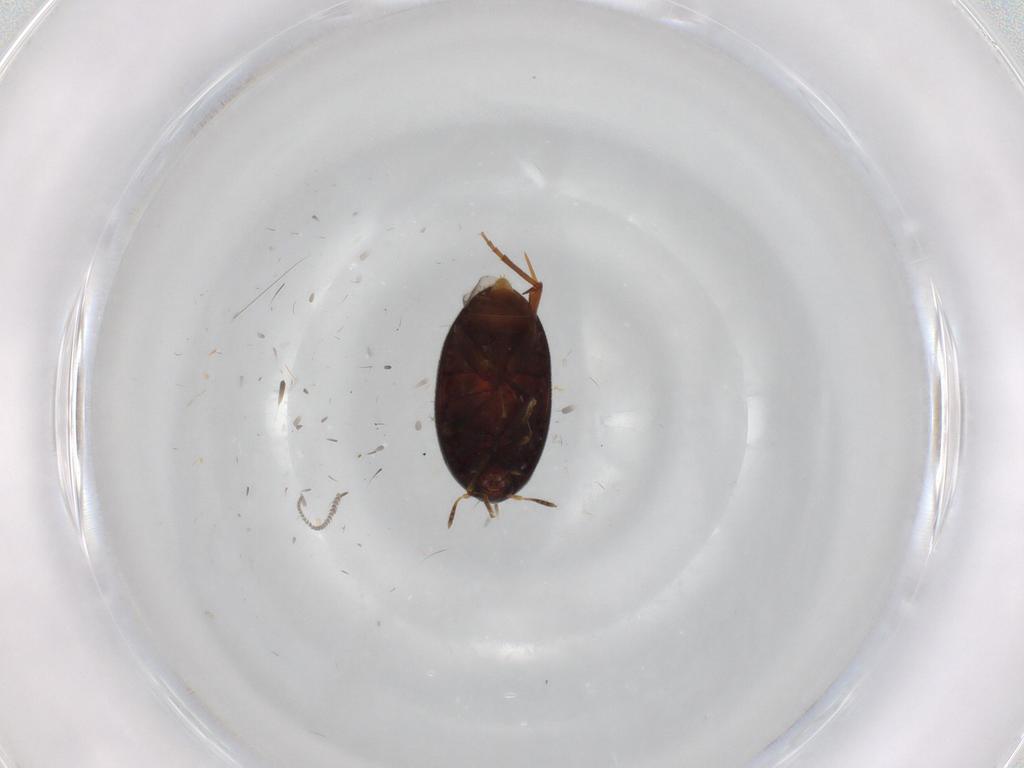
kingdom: Animalia
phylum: Arthropoda
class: Insecta
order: Coleoptera
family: Melandryidae
